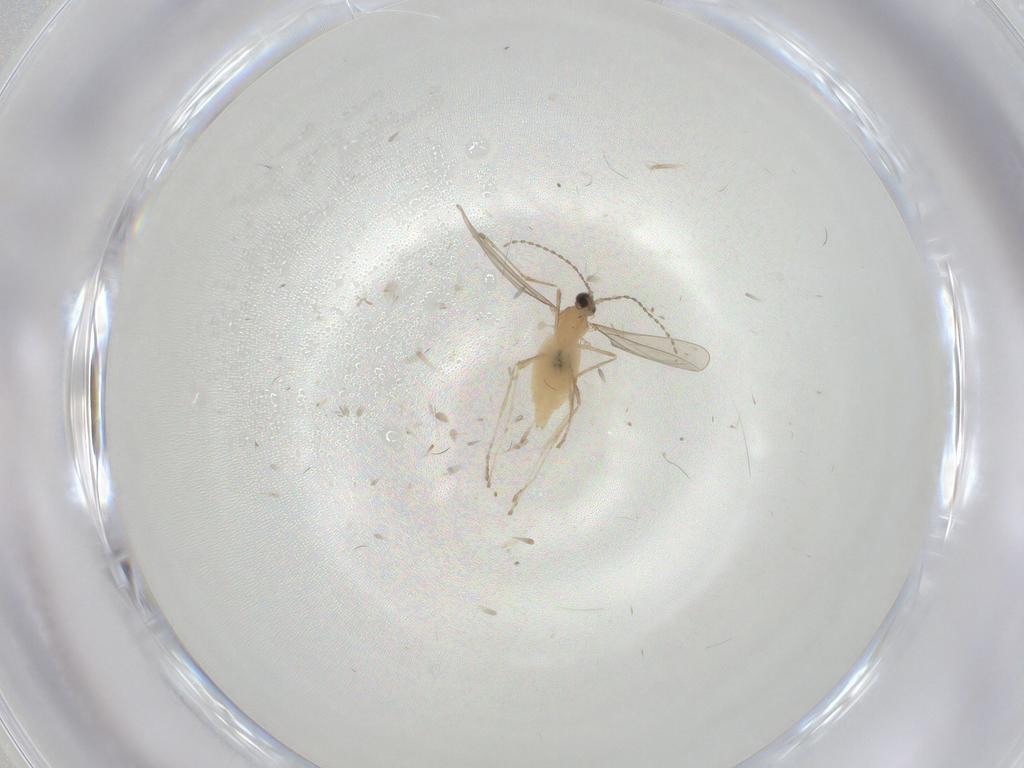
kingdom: Animalia
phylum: Arthropoda
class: Insecta
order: Diptera
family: Cecidomyiidae
